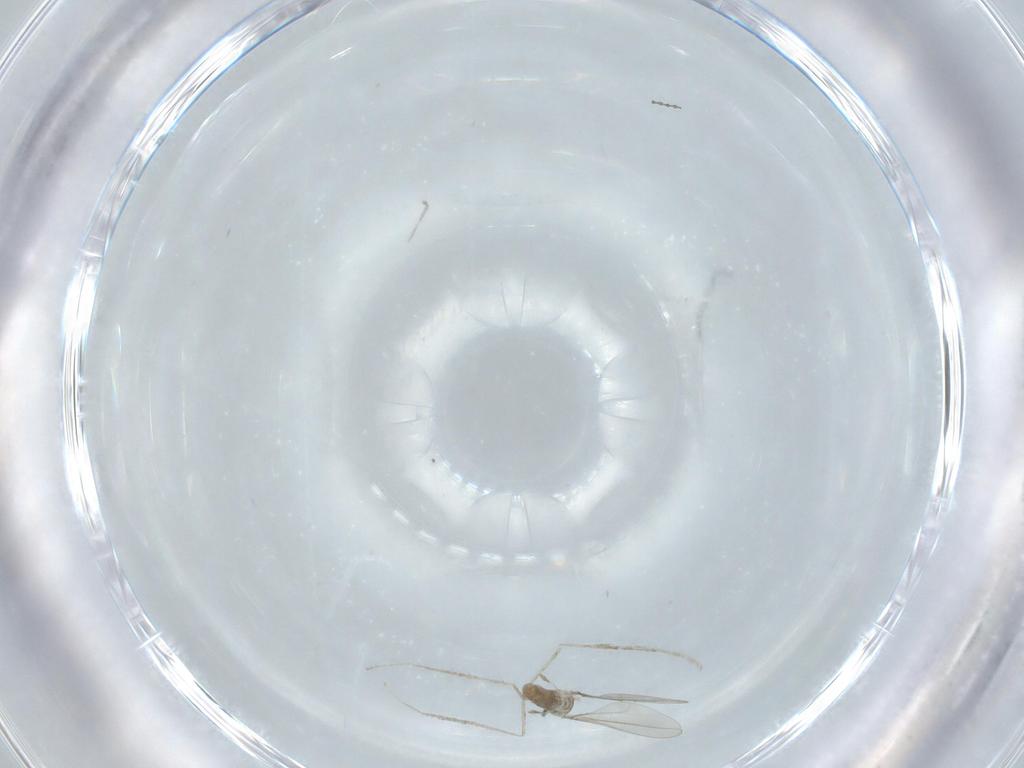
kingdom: Animalia
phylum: Arthropoda
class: Insecta
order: Diptera
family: Cecidomyiidae
